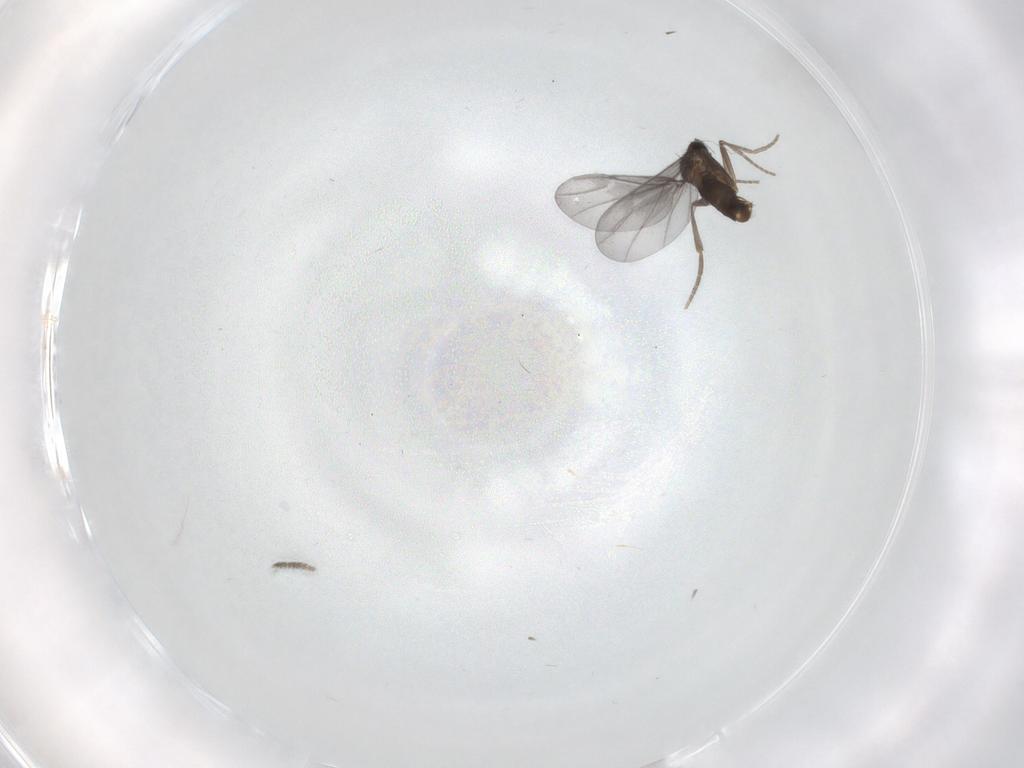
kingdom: Animalia
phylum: Arthropoda
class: Insecta
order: Diptera
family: Phoridae
